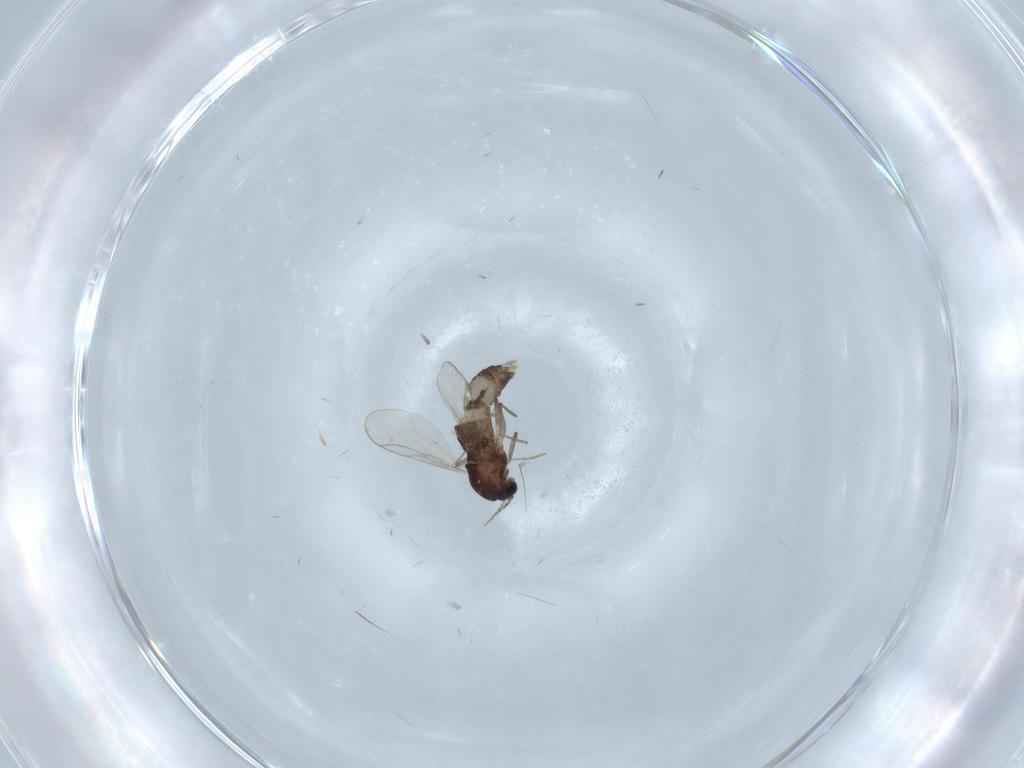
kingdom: Animalia
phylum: Arthropoda
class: Insecta
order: Diptera
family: Chironomidae
